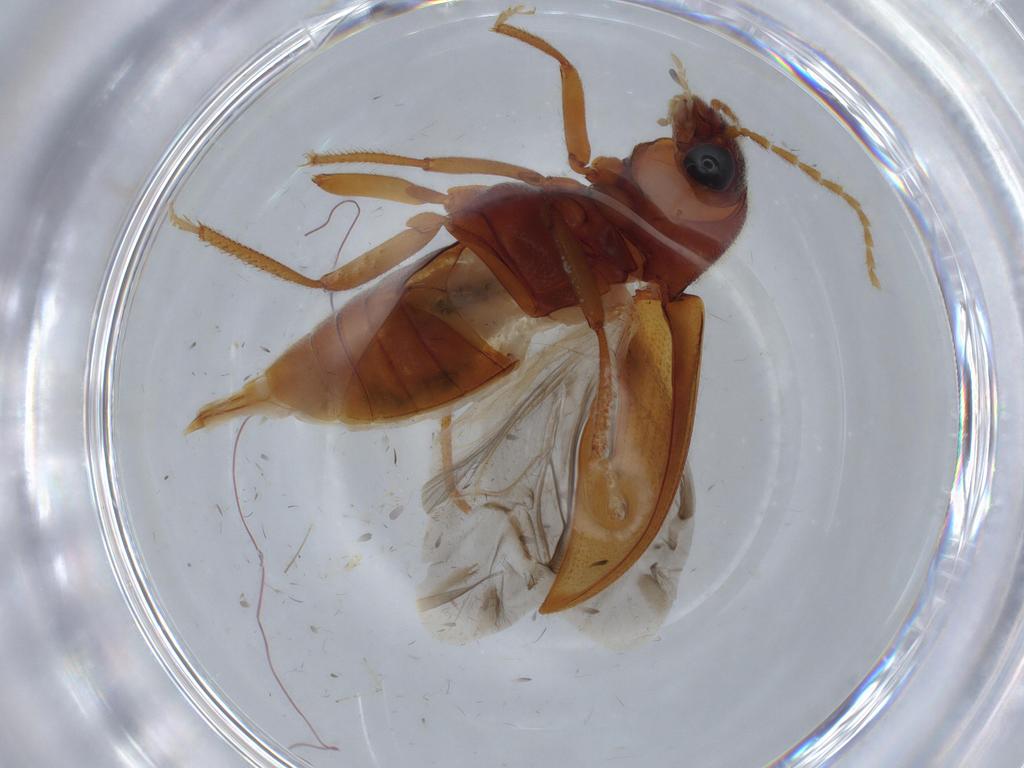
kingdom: Animalia
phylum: Arthropoda
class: Insecta
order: Coleoptera
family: Ptilodactylidae
